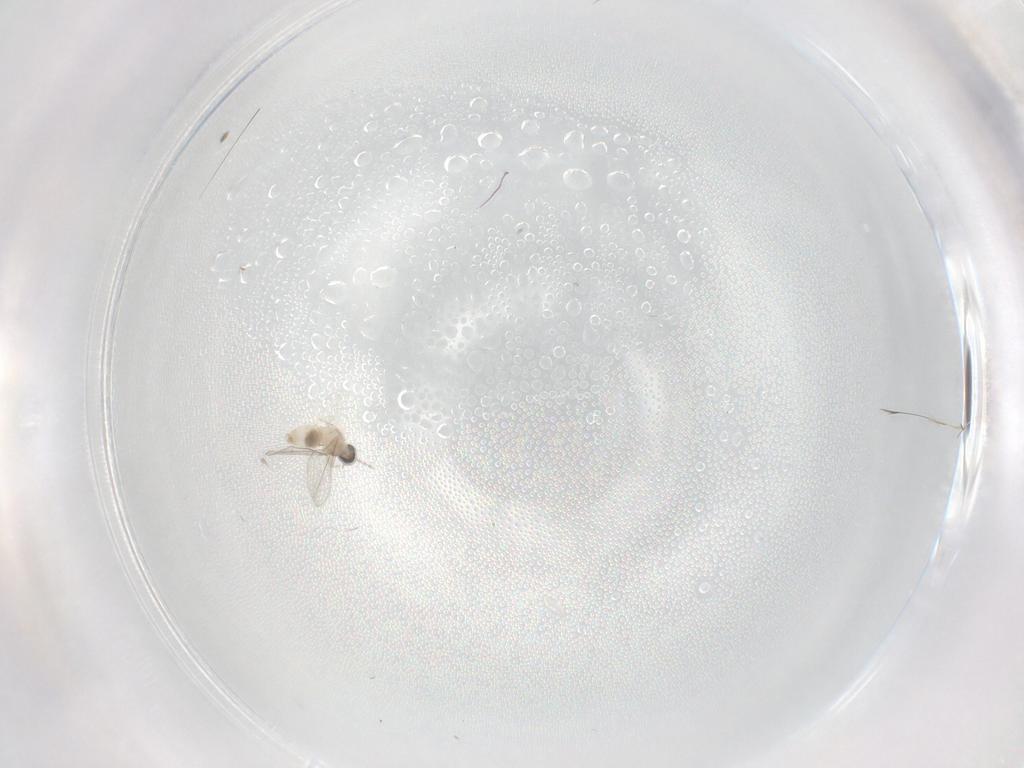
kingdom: Animalia
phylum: Arthropoda
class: Insecta
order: Diptera
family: Cecidomyiidae
